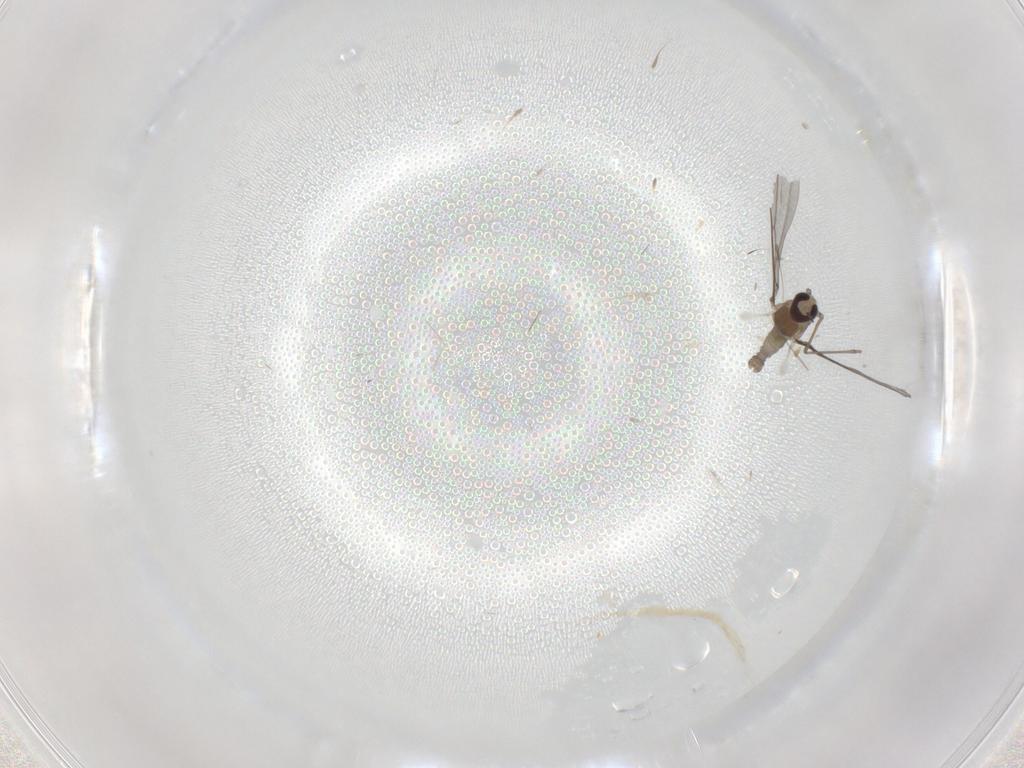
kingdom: Animalia
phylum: Arthropoda
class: Insecta
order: Diptera
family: Cecidomyiidae
